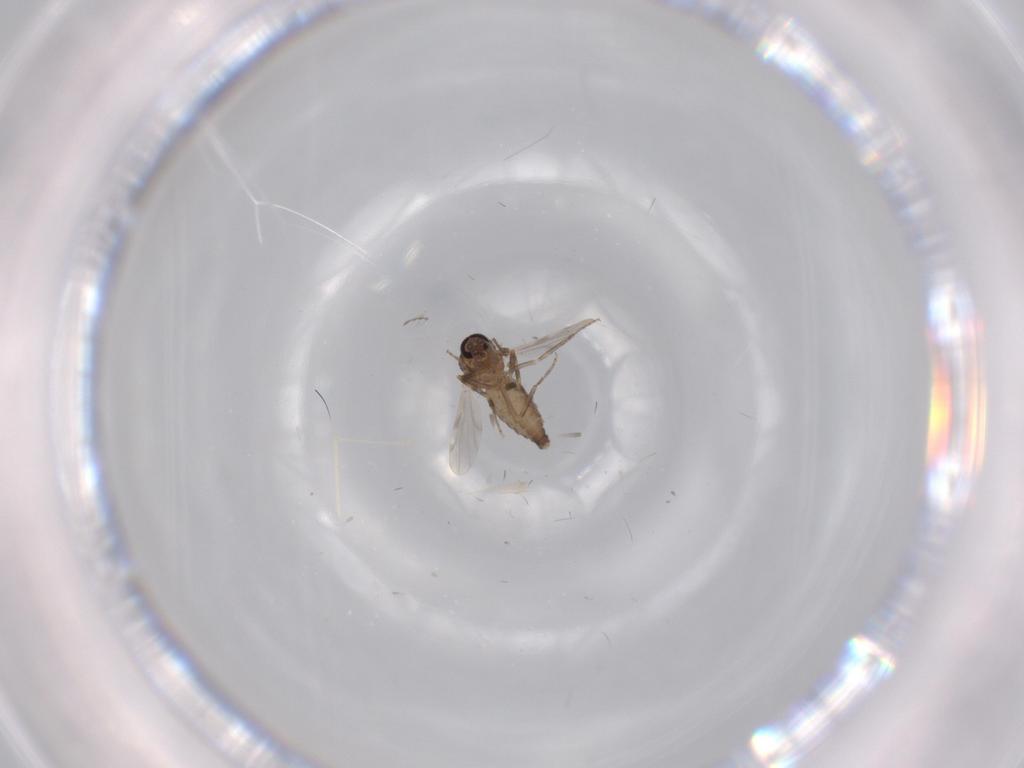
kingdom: Animalia
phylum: Arthropoda
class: Insecta
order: Diptera
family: Ceratopogonidae
